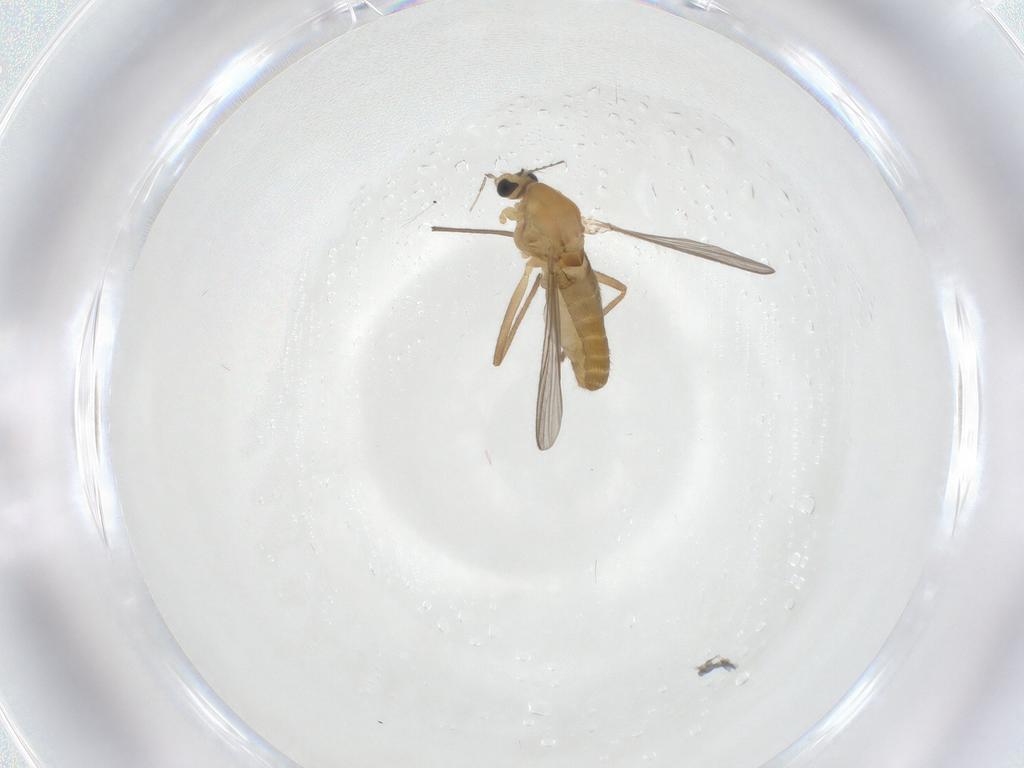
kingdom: Animalia
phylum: Arthropoda
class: Insecta
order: Diptera
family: Chironomidae
